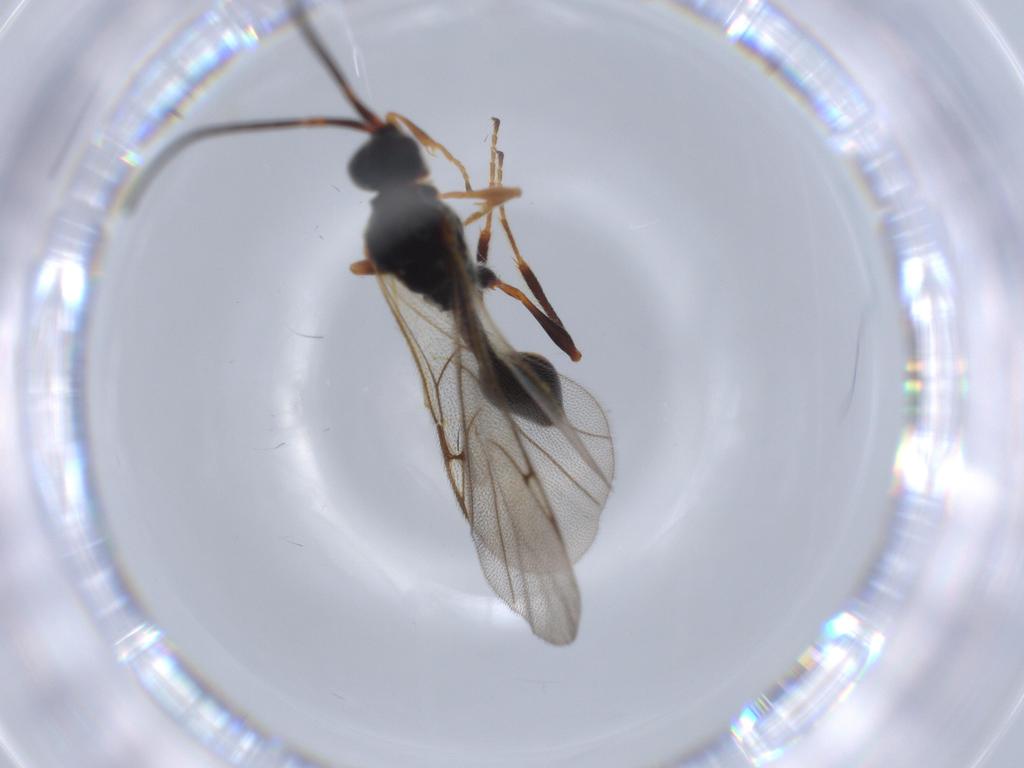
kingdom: Animalia
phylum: Arthropoda
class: Insecta
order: Hymenoptera
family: Diapriidae
